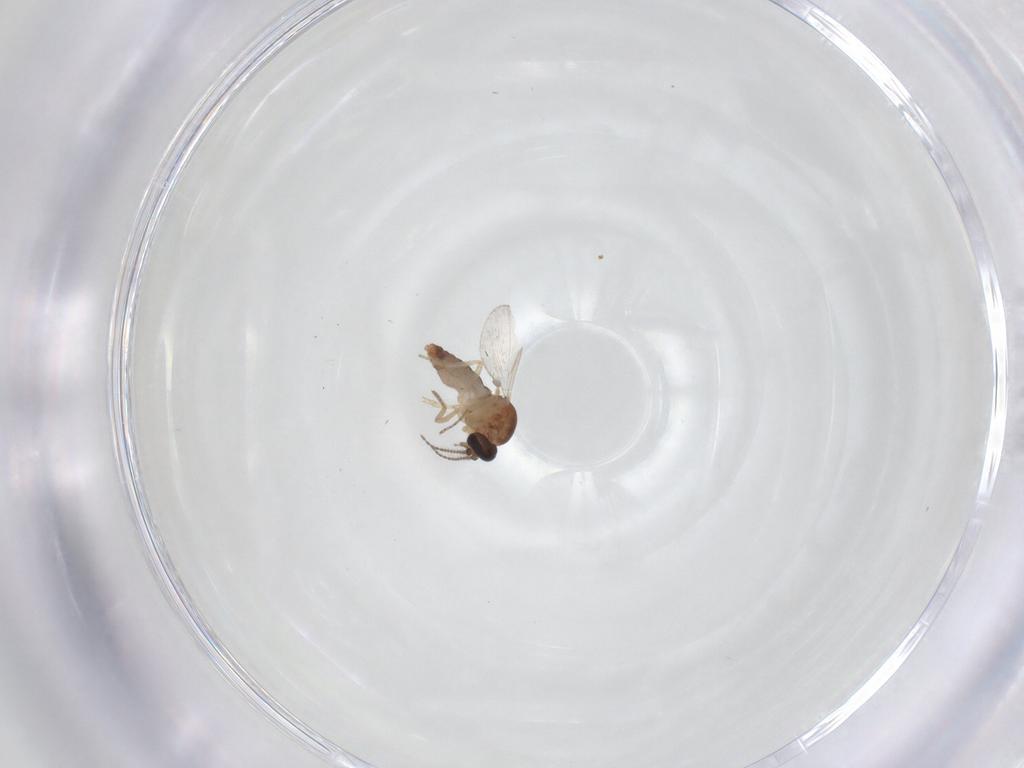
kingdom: Animalia
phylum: Arthropoda
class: Insecta
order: Diptera
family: Ceratopogonidae
